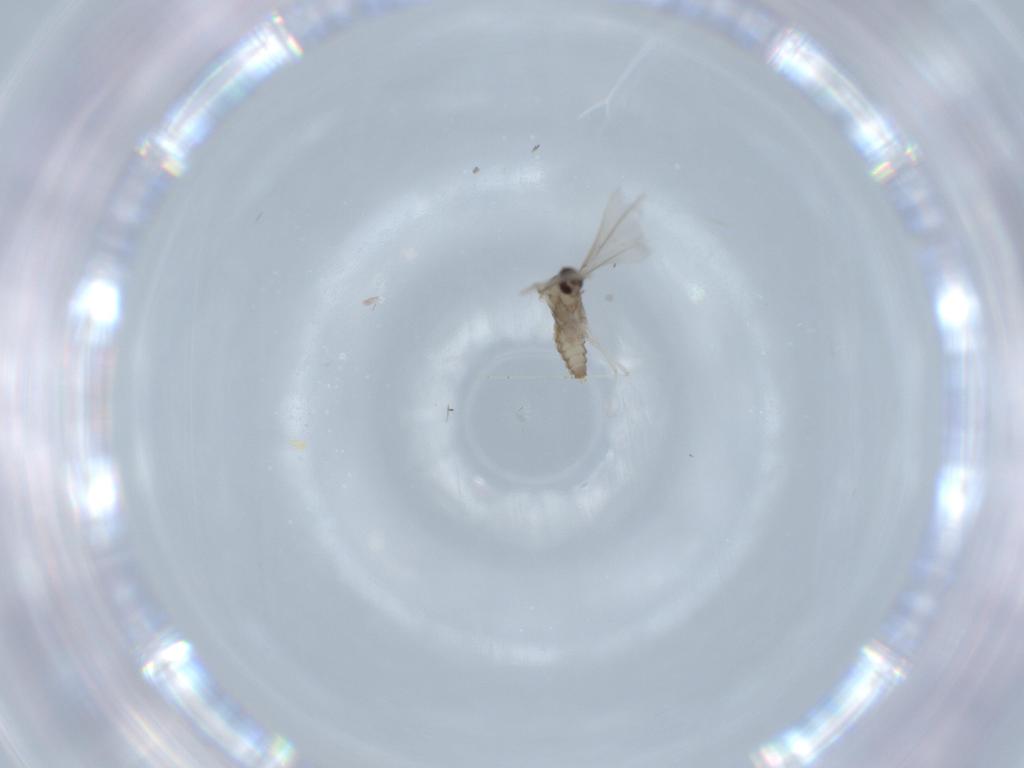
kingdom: Animalia
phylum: Arthropoda
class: Insecta
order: Diptera
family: Cecidomyiidae
